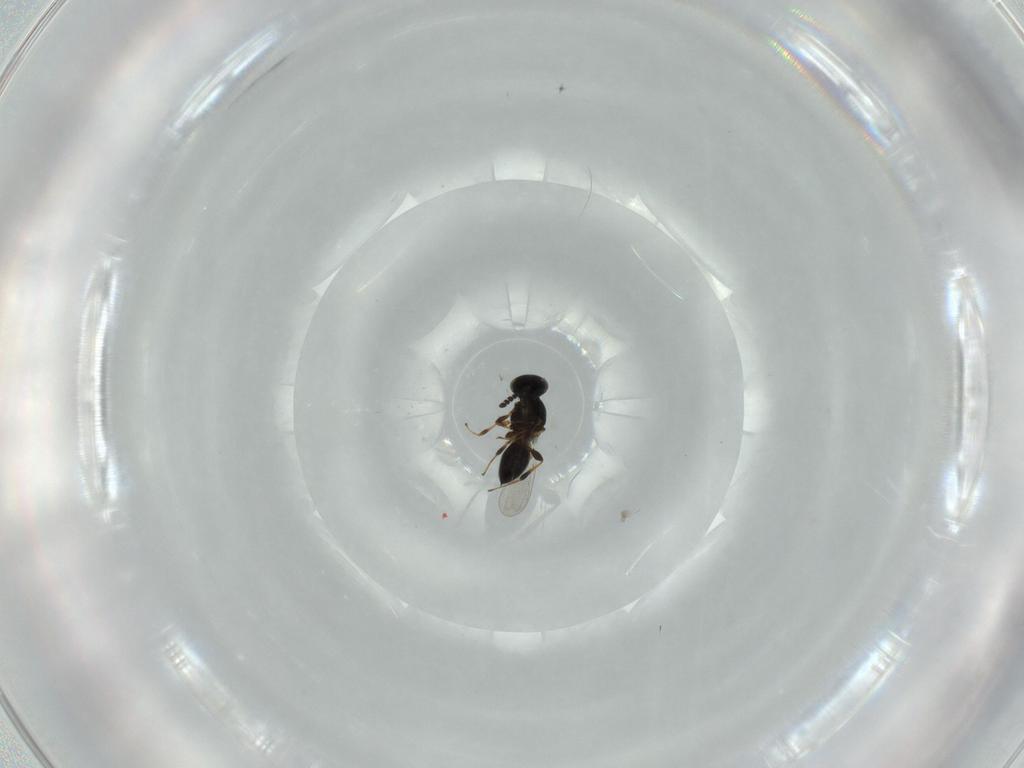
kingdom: Animalia
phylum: Arthropoda
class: Insecta
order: Hymenoptera
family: Platygastridae
